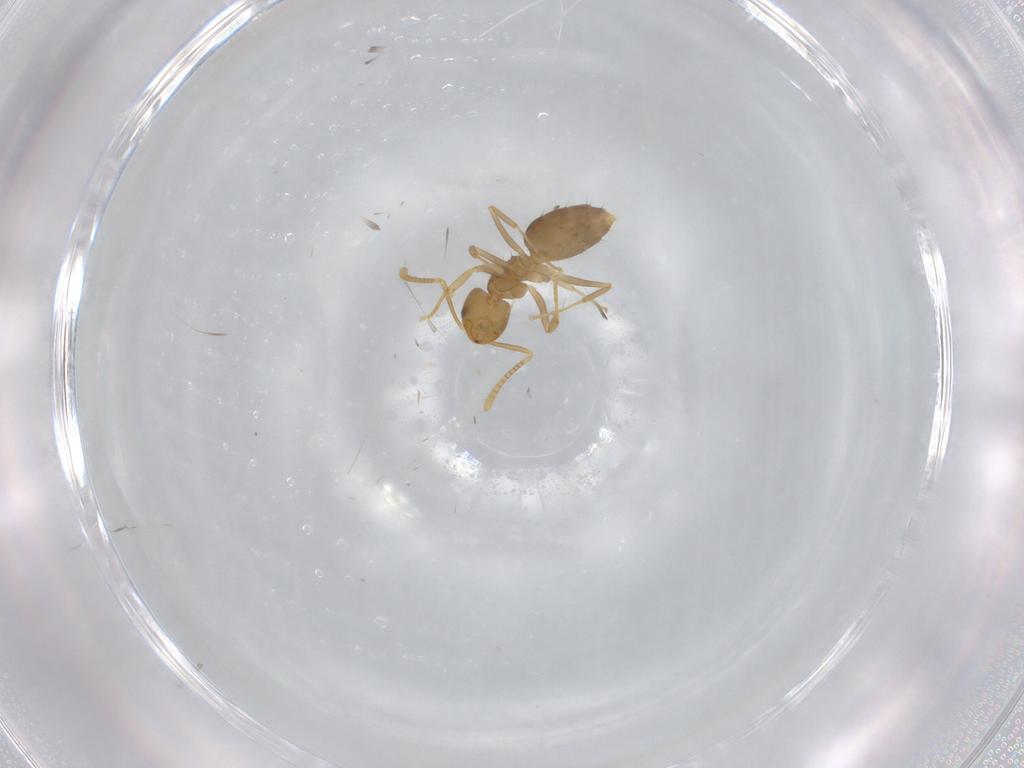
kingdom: Animalia
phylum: Arthropoda
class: Insecta
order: Hymenoptera
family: Formicidae
